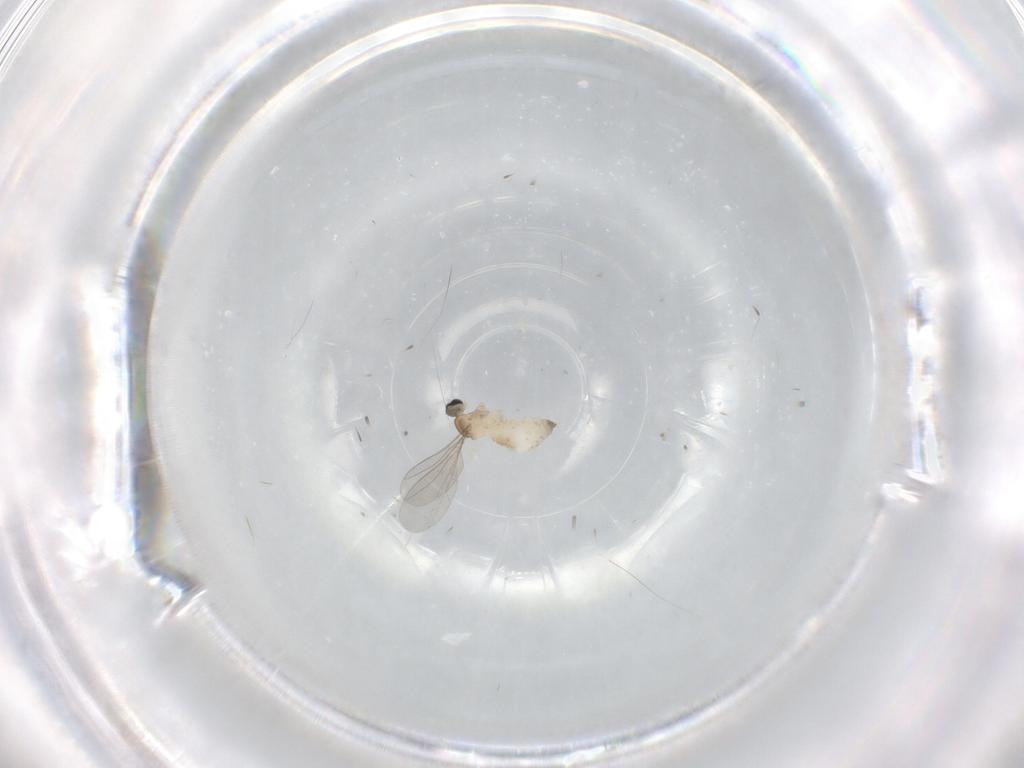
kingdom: Animalia
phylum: Arthropoda
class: Insecta
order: Diptera
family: Cecidomyiidae
